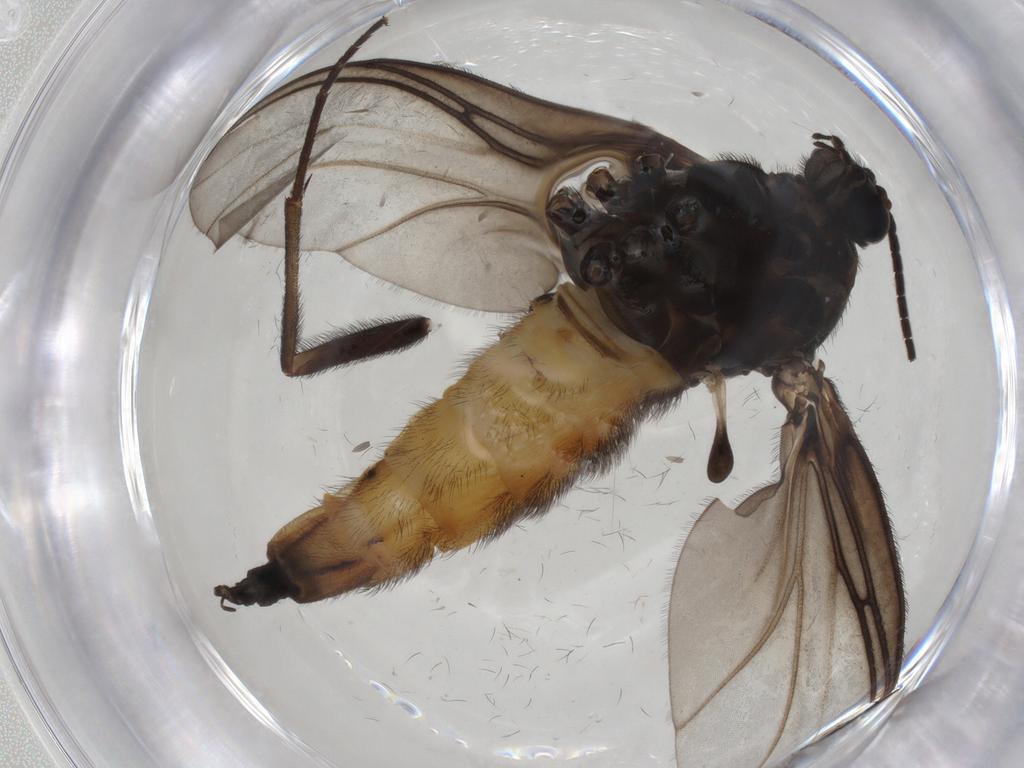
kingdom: Animalia
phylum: Arthropoda
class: Insecta
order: Diptera
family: Sciaridae
